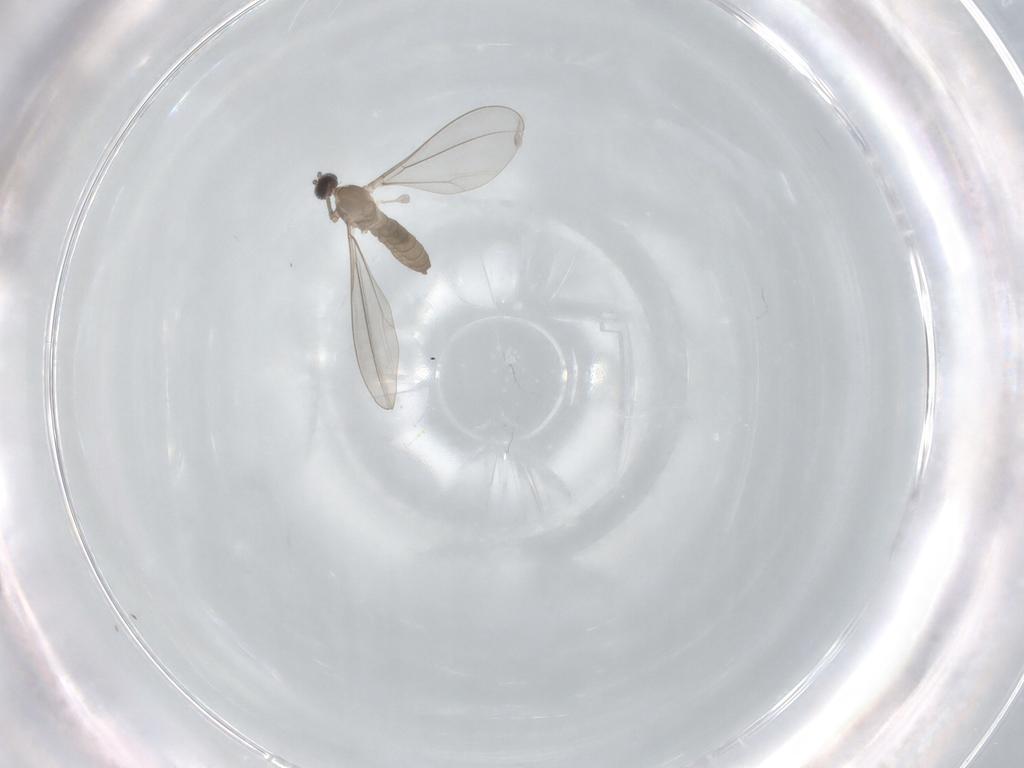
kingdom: Animalia
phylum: Arthropoda
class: Insecta
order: Diptera
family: Cecidomyiidae
